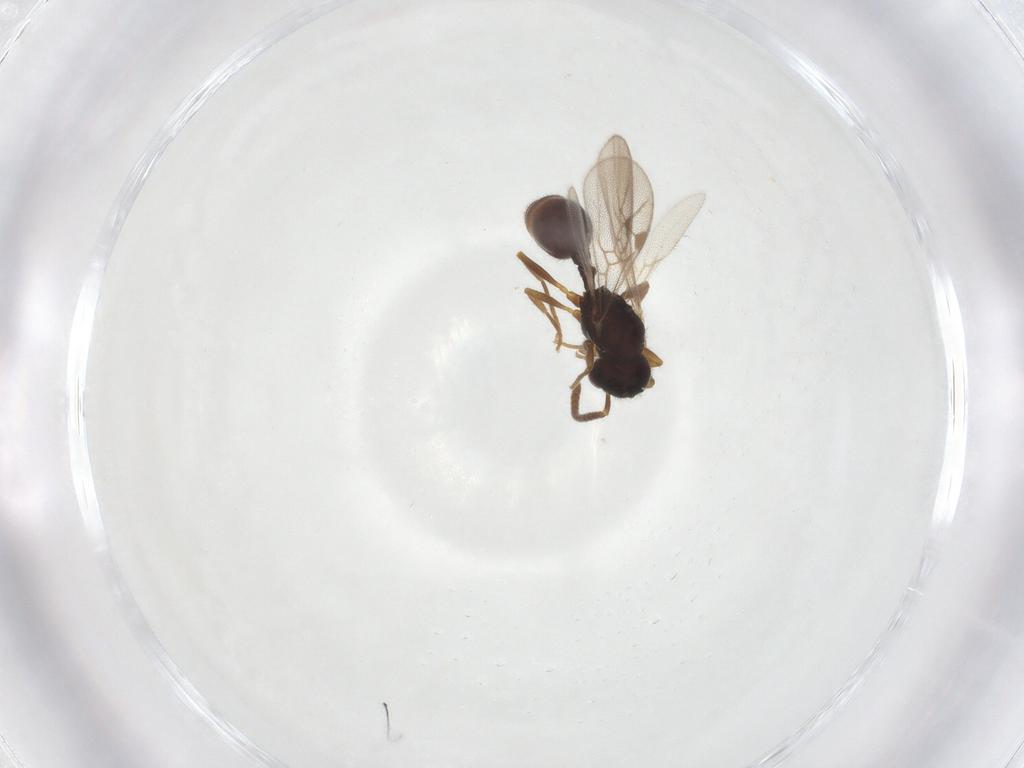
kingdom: Animalia
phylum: Arthropoda
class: Insecta
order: Hymenoptera
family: Formicidae
